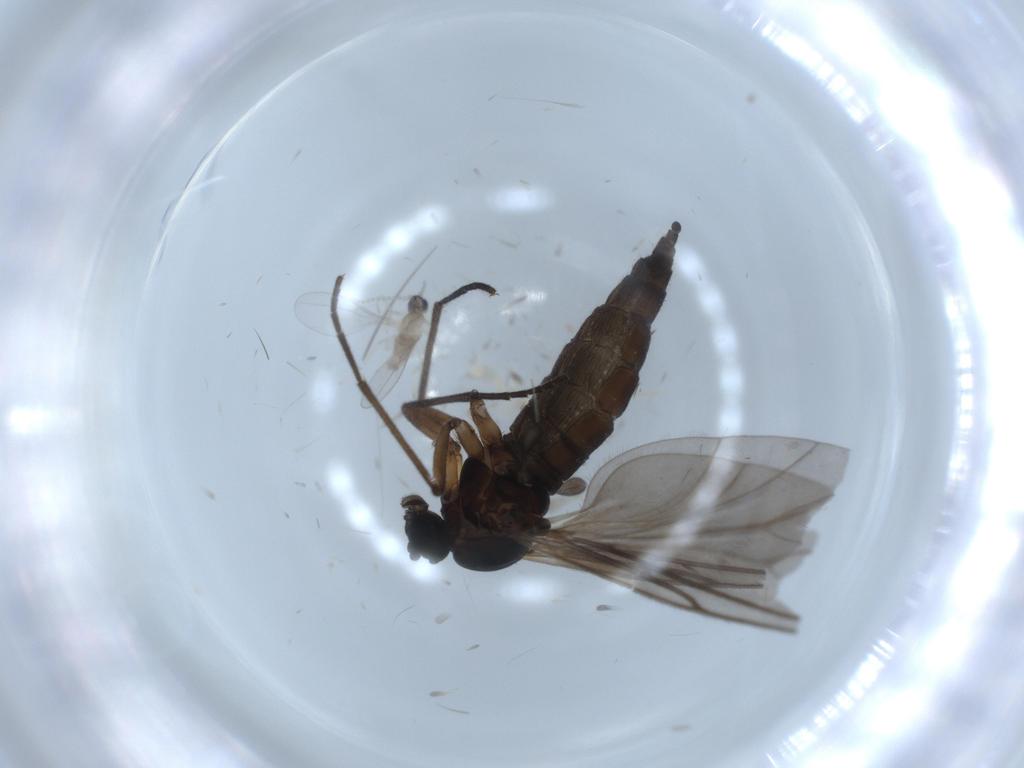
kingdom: Animalia
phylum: Arthropoda
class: Insecta
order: Diptera
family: Sciaridae
